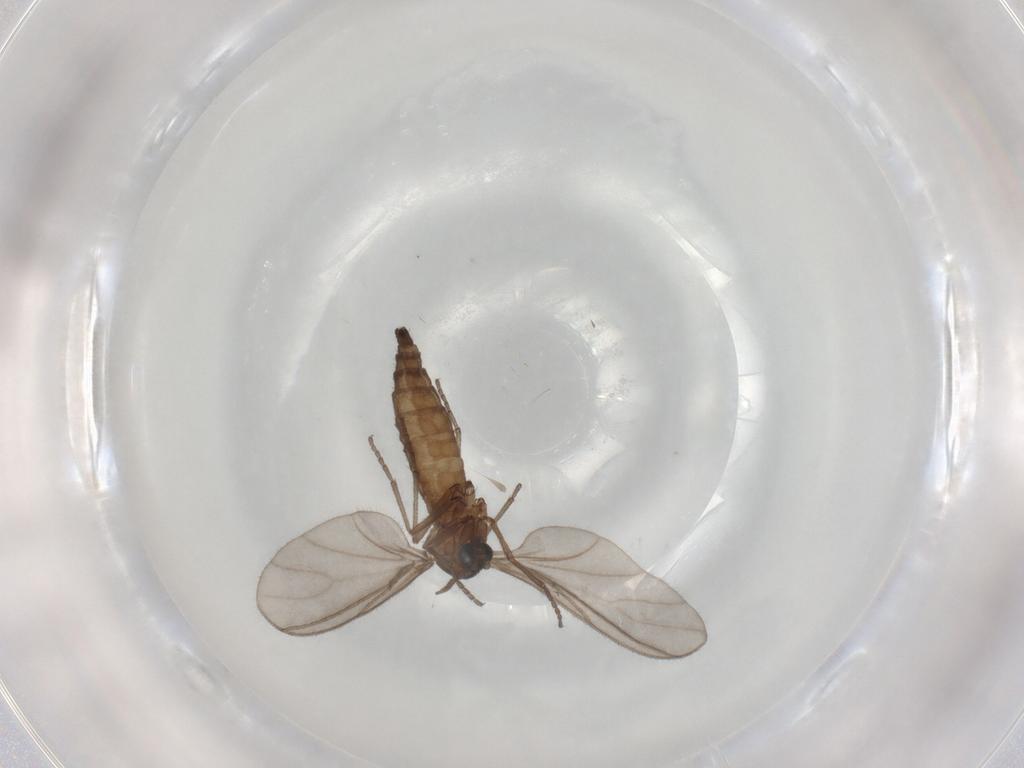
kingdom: Animalia
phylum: Arthropoda
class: Insecta
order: Diptera
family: Sciaridae
